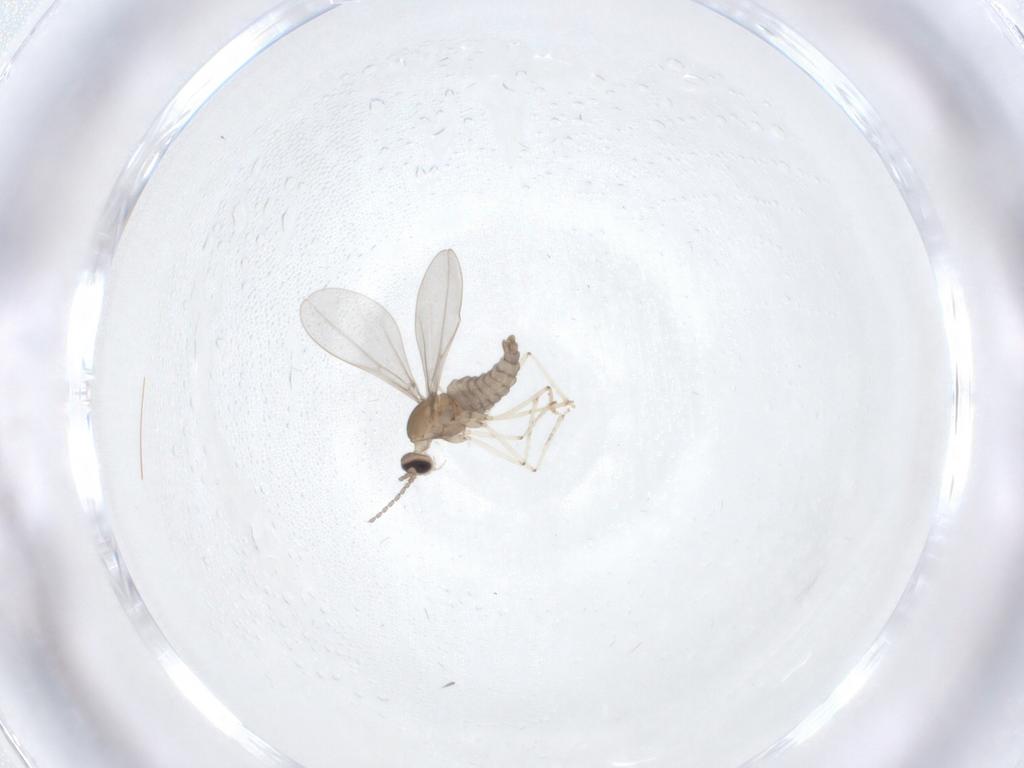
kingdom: Animalia
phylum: Arthropoda
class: Insecta
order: Diptera
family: Cecidomyiidae
